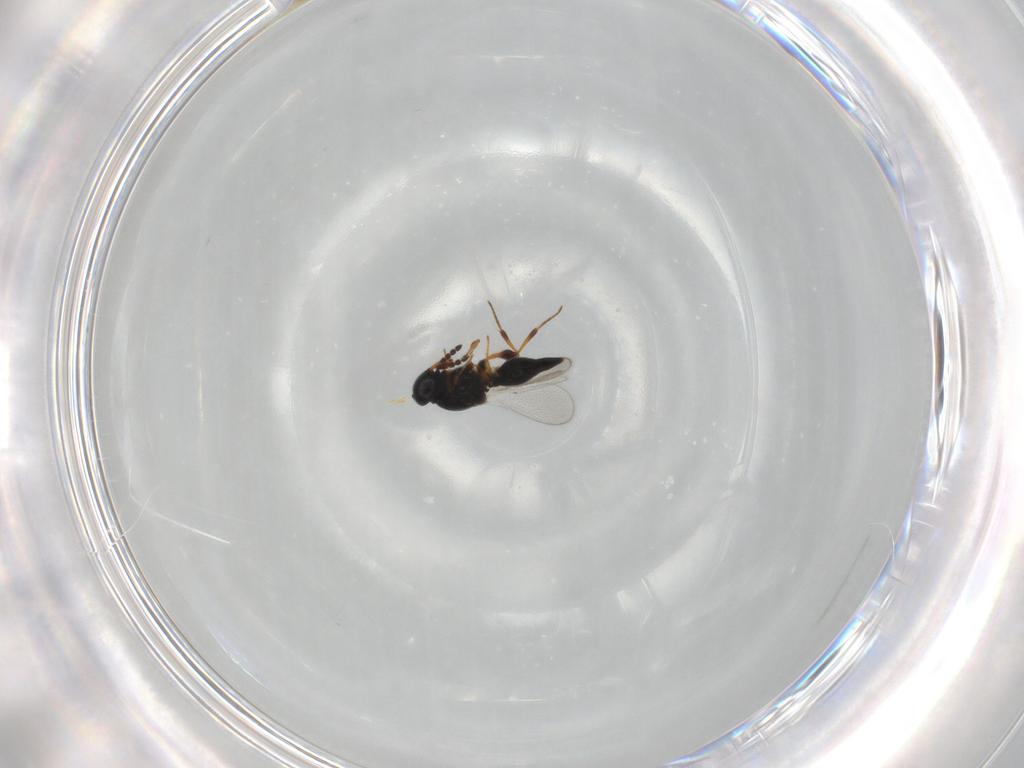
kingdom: Animalia
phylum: Arthropoda
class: Insecta
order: Hymenoptera
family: Platygastridae
